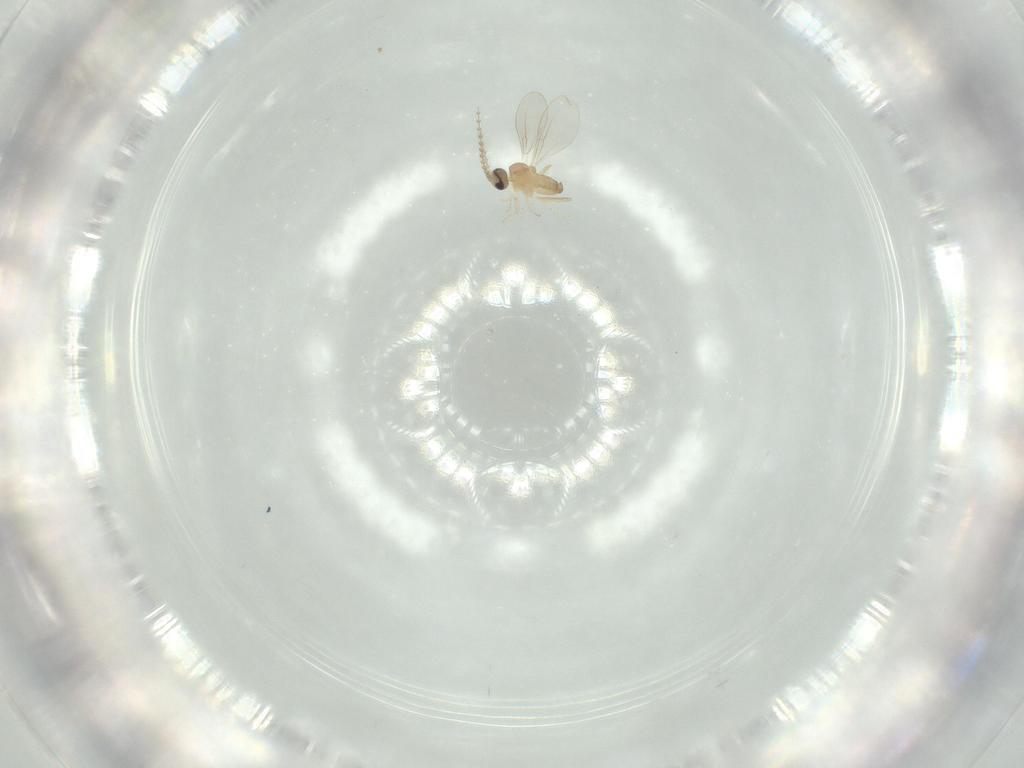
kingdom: Animalia
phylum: Arthropoda
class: Insecta
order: Diptera
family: Cecidomyiidae
